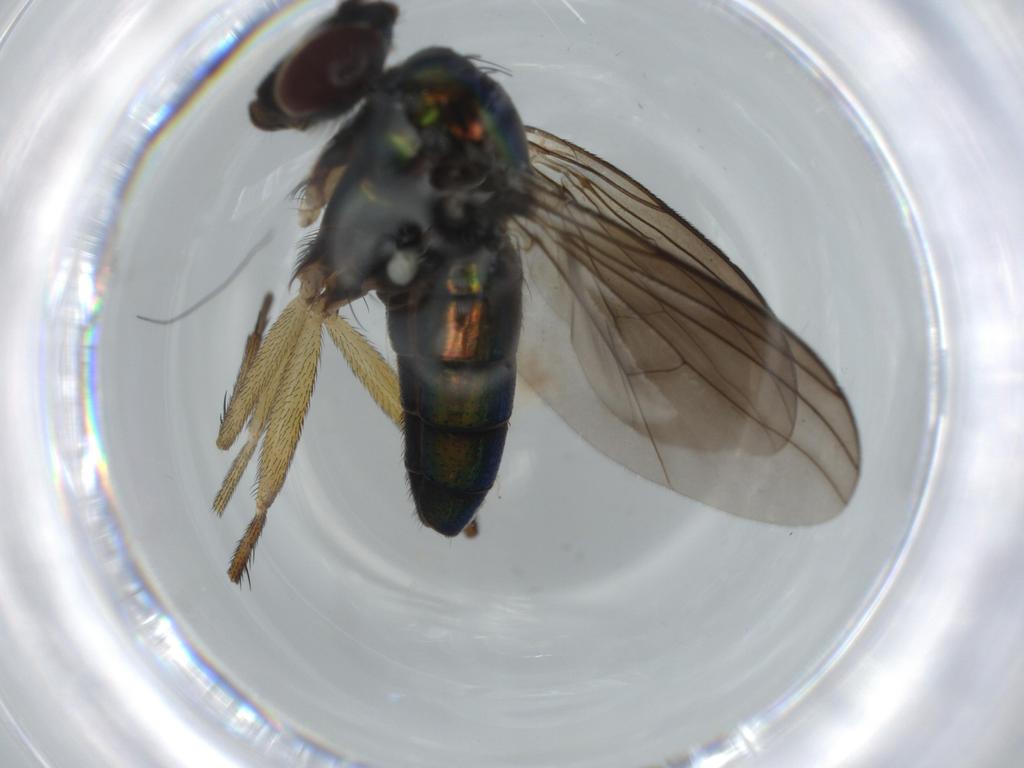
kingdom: Animalia
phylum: Arthropoda
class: Insecta
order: Diptera
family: Dolichopodidae
